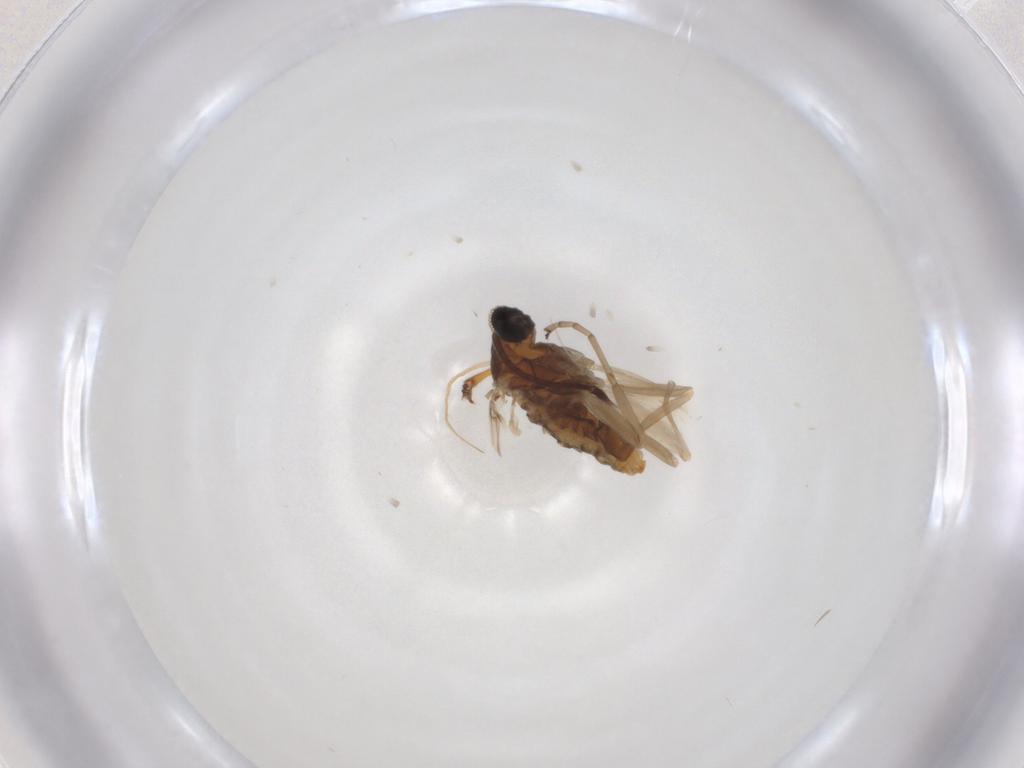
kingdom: Animalia
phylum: Arthropoda
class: Insecta
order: Diptera
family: Cecidomyiidae
